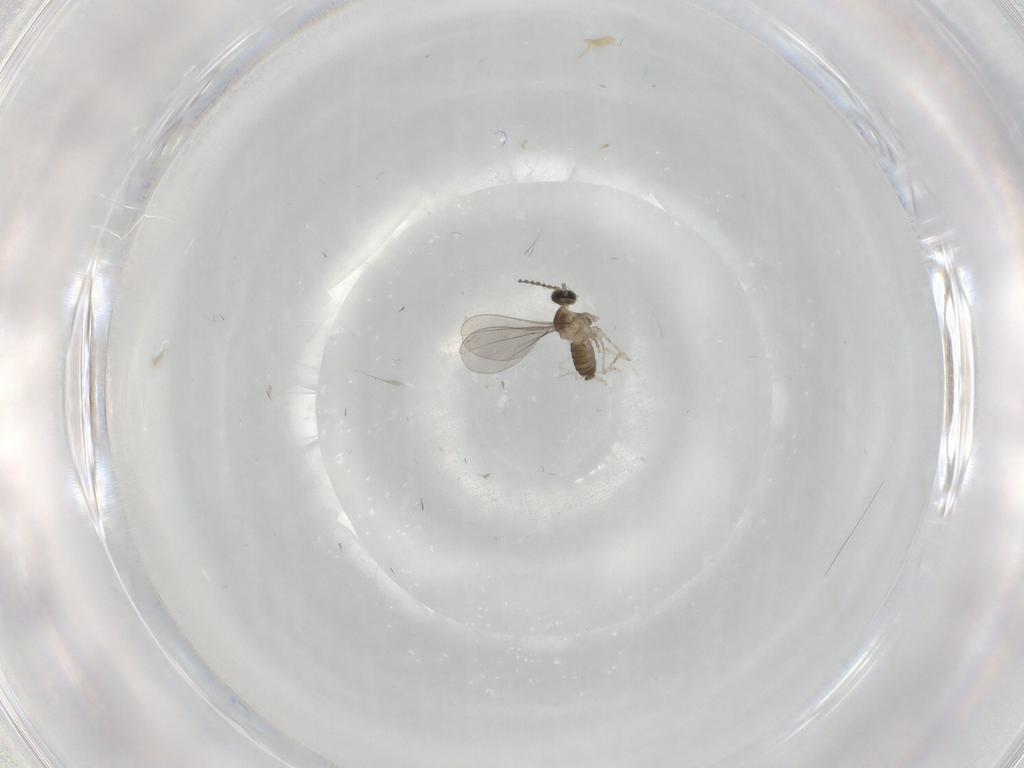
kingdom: Animalia
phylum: Arthropoda
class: Insecta
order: Diptera
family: Cecidomyiidae
